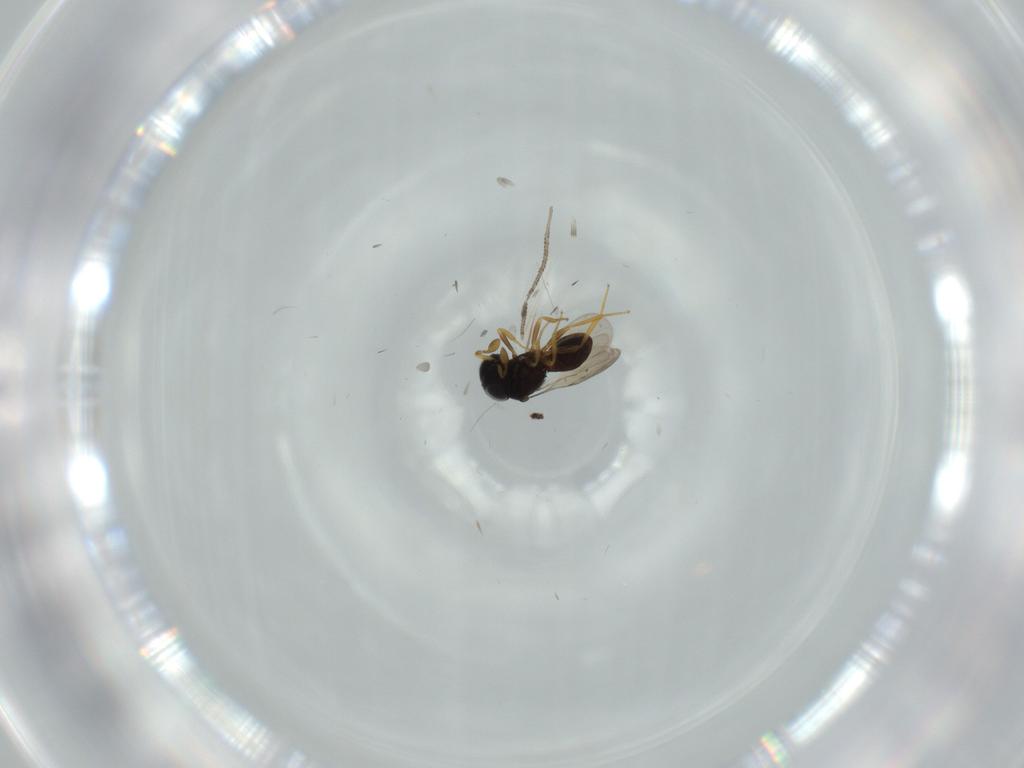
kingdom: Animalia
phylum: Arthropoda
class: Insecta
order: Hymenoptera
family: Scelionidae
